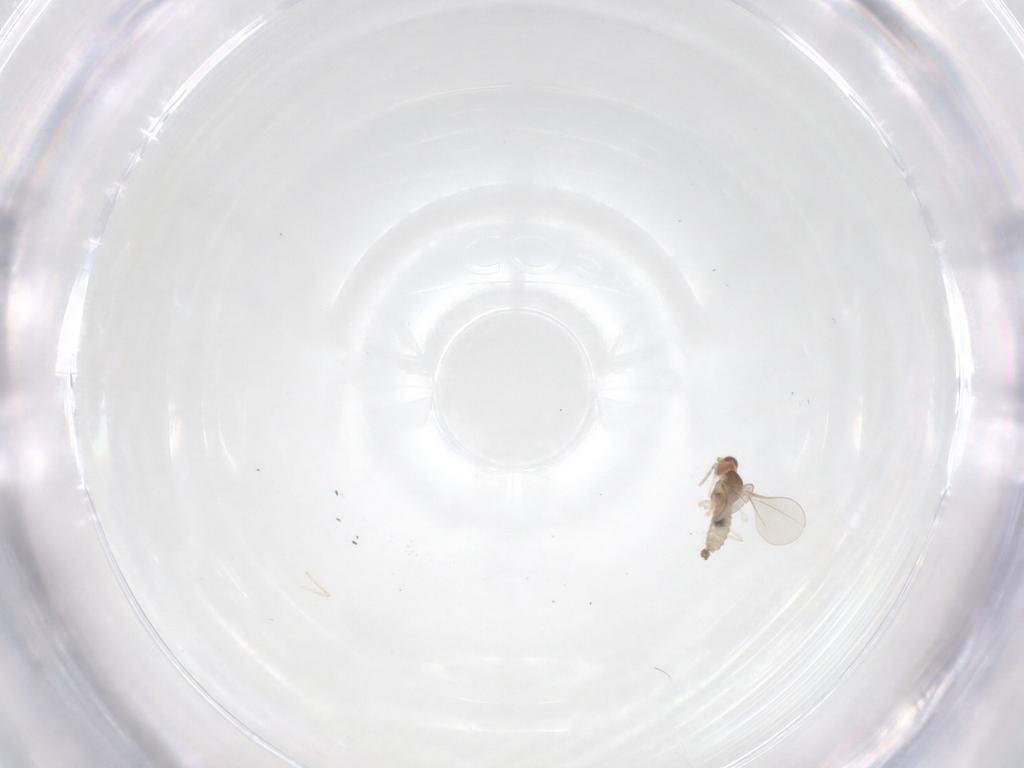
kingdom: Animalia
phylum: Arthropoda
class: Insecta
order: Diptera
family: Cecidomyiidae
